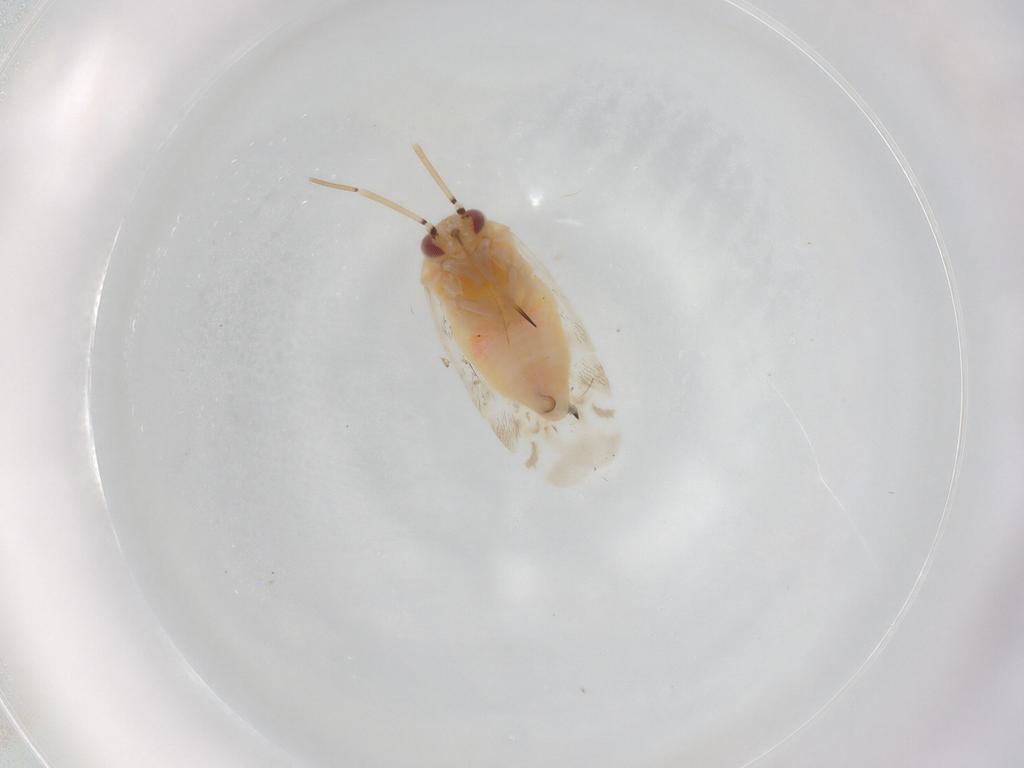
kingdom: Animalia
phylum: Arthropoda
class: Insecta
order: Hemiptera
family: Miridae
